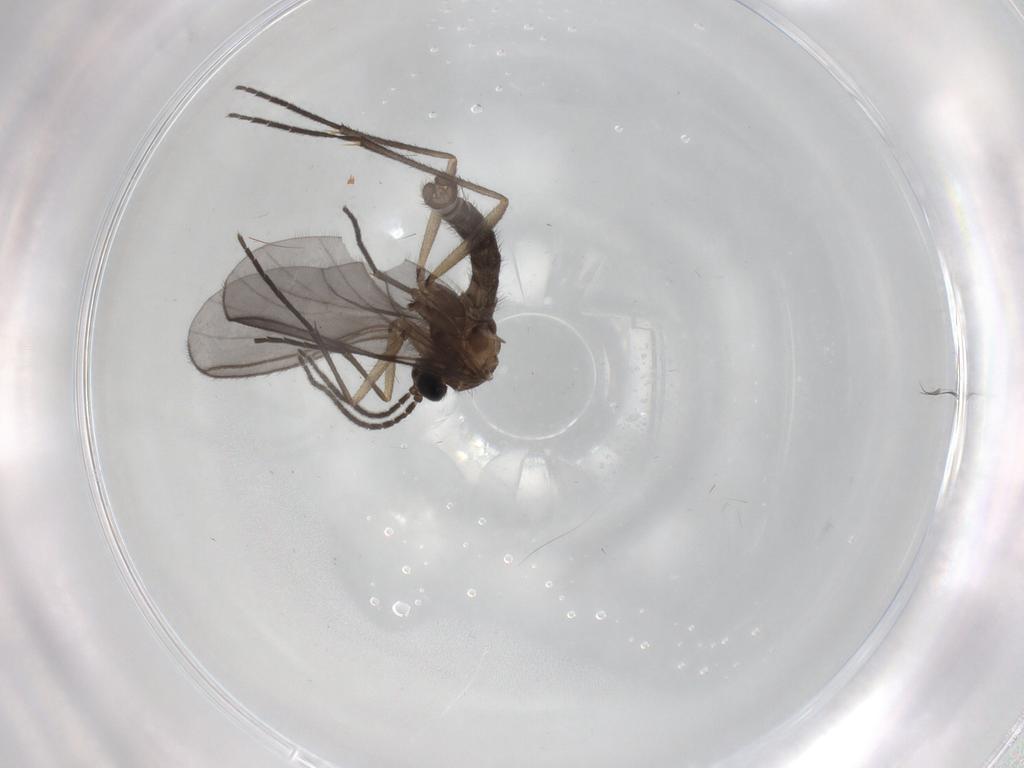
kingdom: Animalia
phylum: Arthropoda
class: Insecta
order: Diptera
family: Sciaridae
